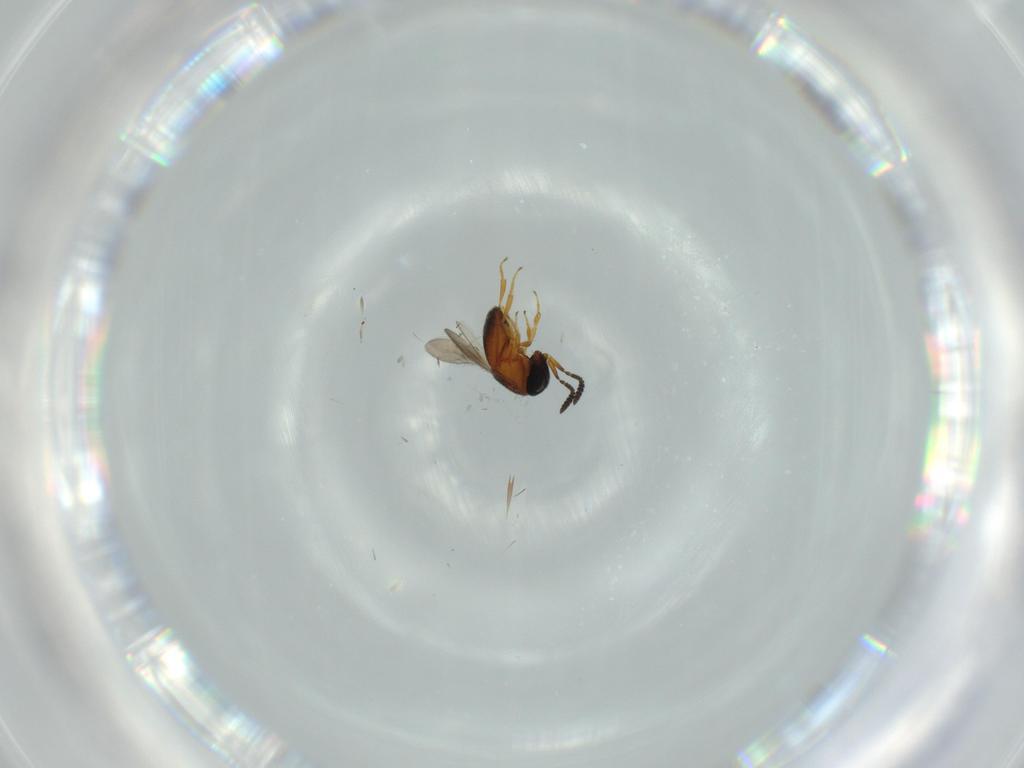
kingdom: Animalia
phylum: Arthropoda
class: Insecta
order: Hymenoptera
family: Scelionidae
